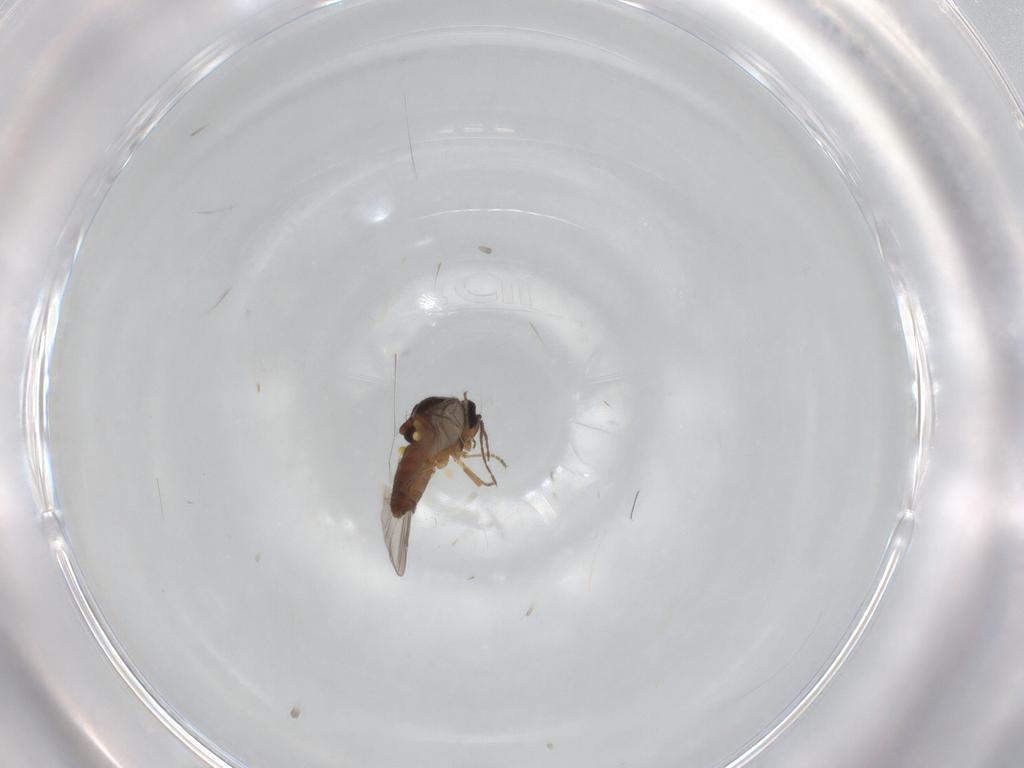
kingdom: Animalia
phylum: Arthropoda
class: Insecta
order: Diptera
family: Ceratopogonidae
